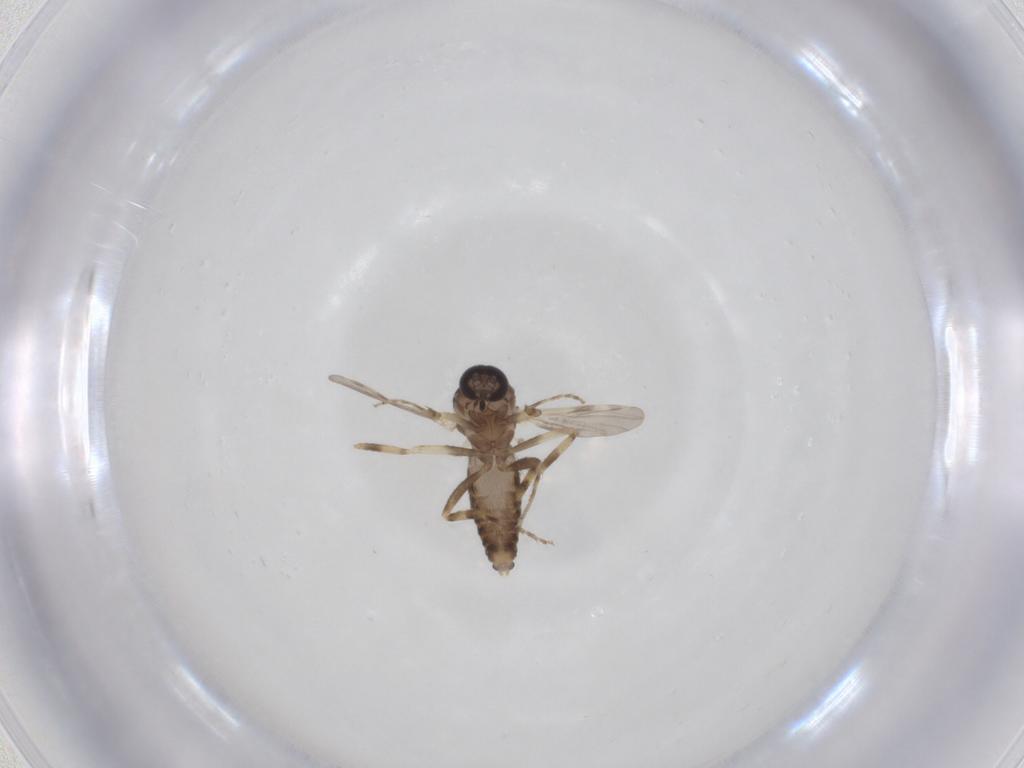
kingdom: Animalia
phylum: Arthropoda
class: Insecta
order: Diptera
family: Ceratopogonidae
